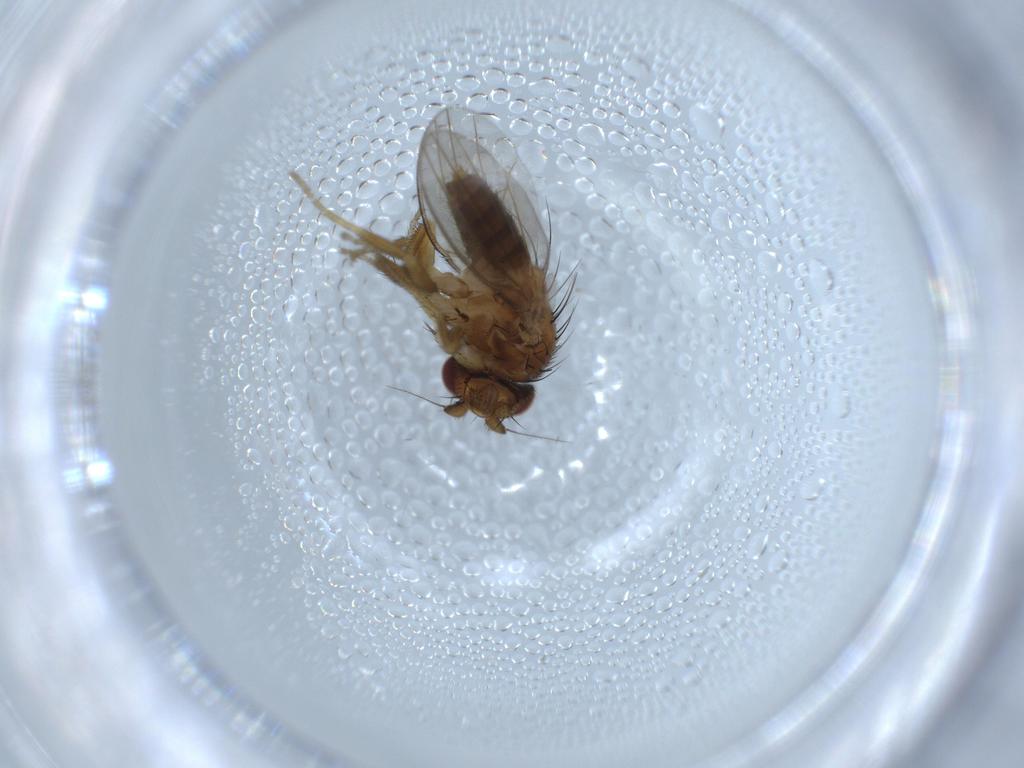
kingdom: Animalia
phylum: Arthropoda
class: Insecta
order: Diptera
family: Milichiidae
